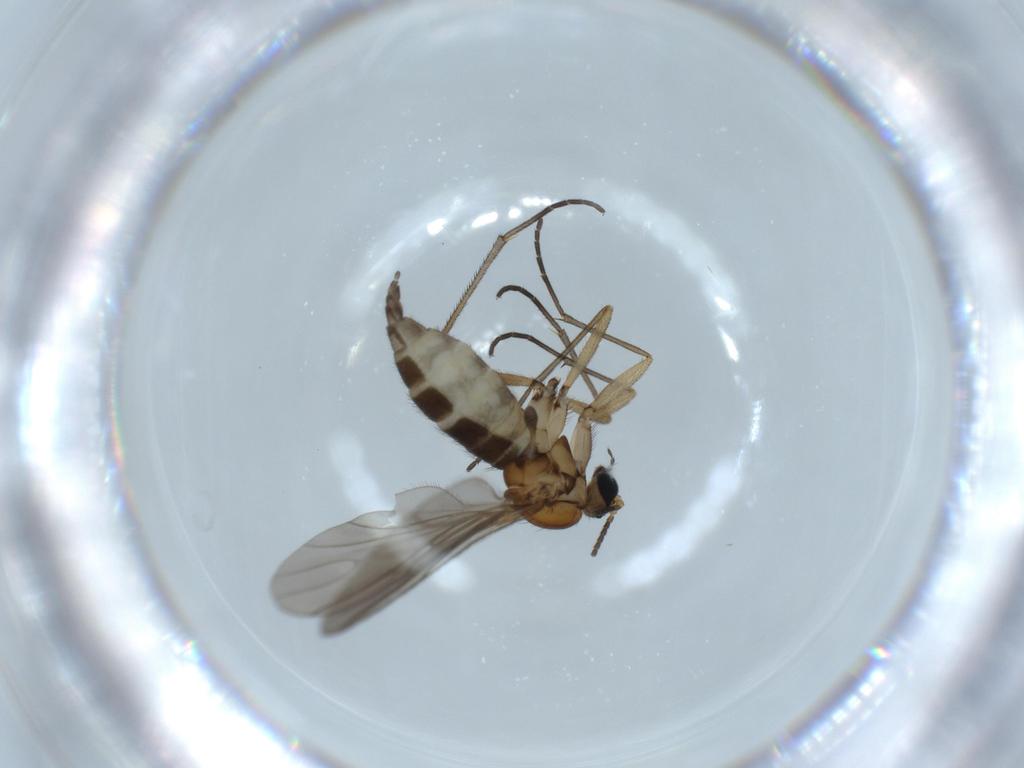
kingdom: Animalia
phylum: Arthropoda
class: Insecta
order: Diptera
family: Sciaridae
